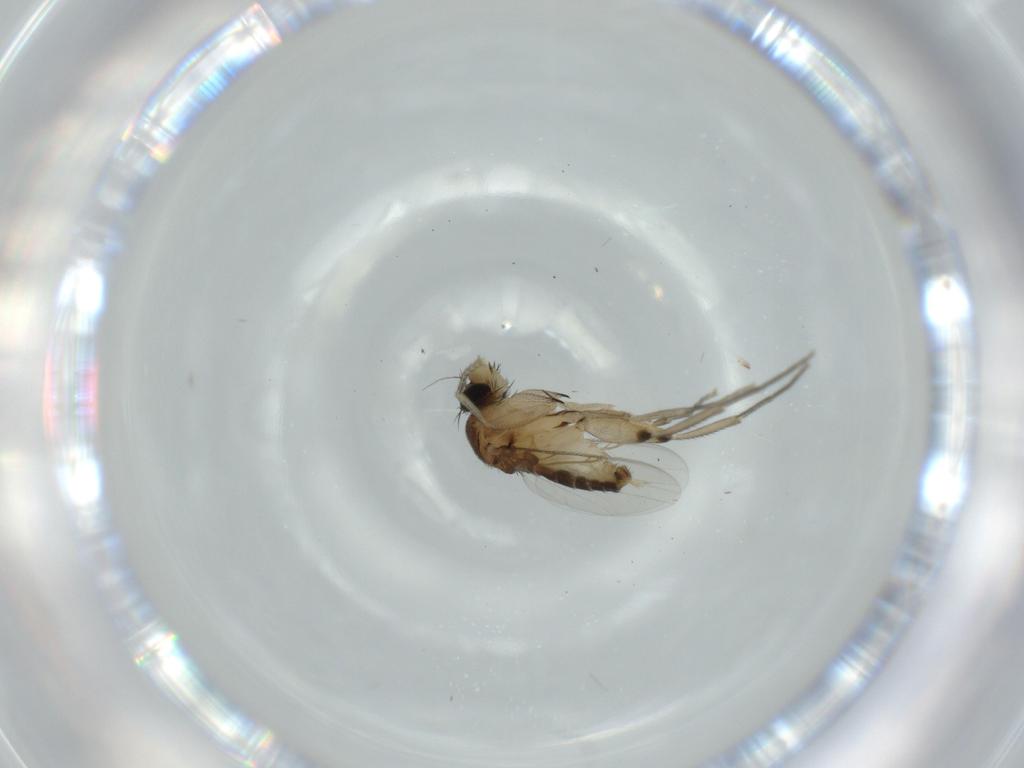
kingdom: Animalia
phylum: Arthropoda
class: Insecta
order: Diptera
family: Phoridae
